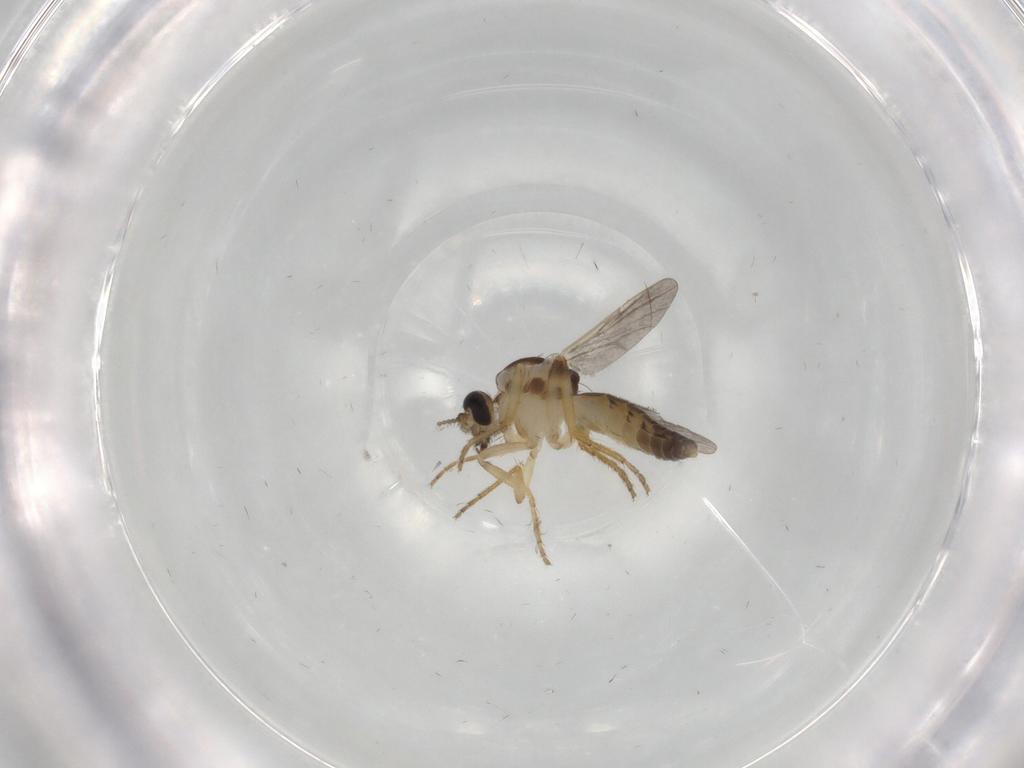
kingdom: Animalia
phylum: Arthropoda
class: Insecta
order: Diptera
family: Ceratopogonidae
